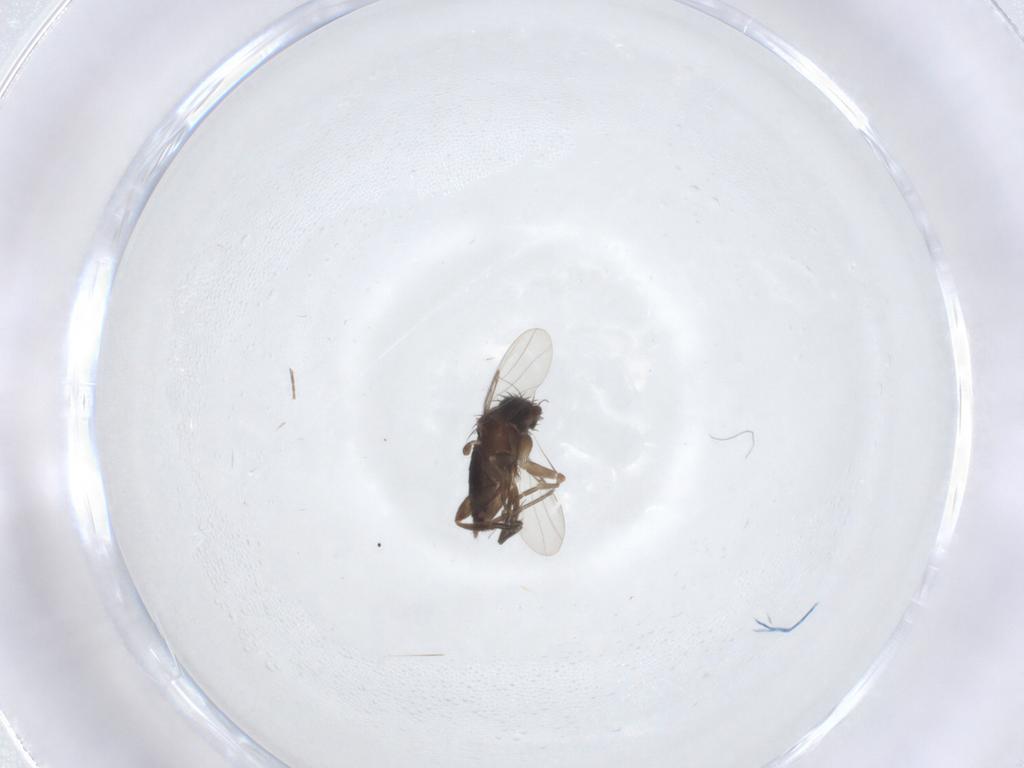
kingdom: Animalia
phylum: Arthropoda
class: Insecta
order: Diptera
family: Phoridae
